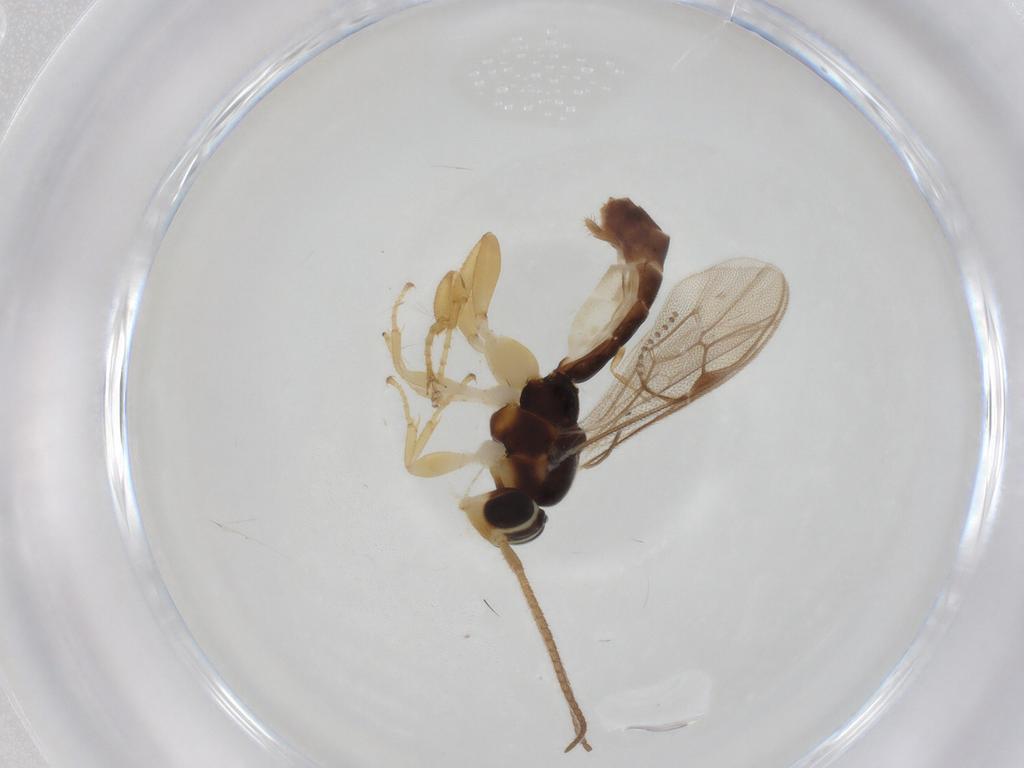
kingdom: Animalia
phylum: Arthropoda
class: Insecta
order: Hymenoptera
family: Ichneumonidae
